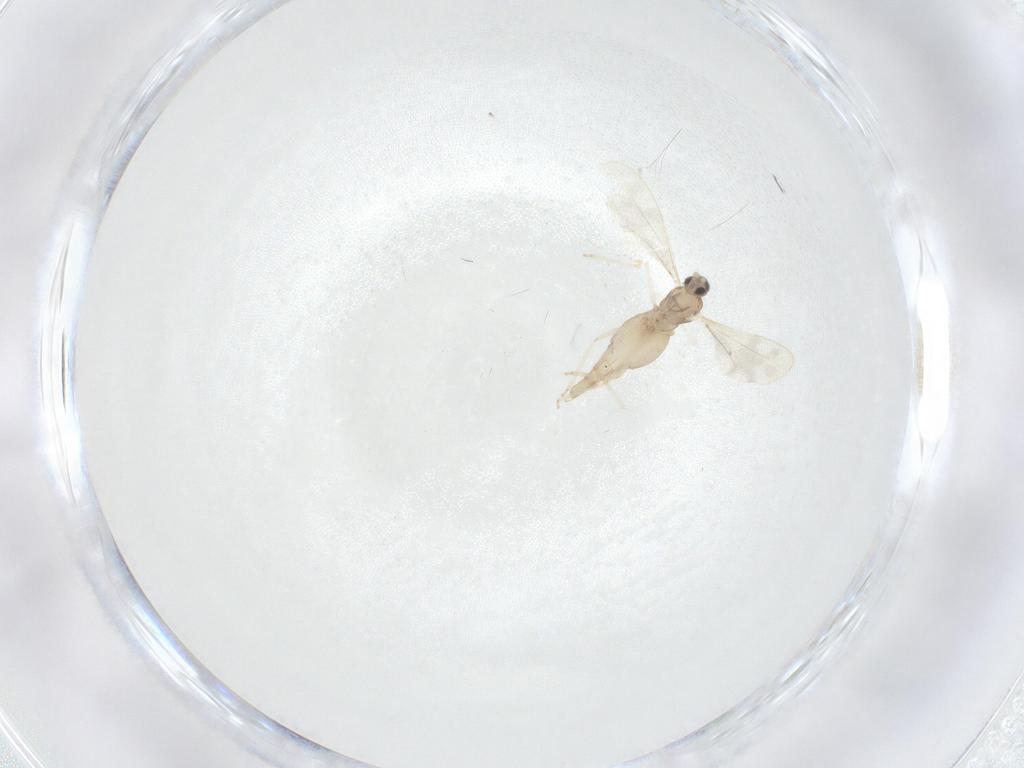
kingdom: Animalia
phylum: Arthropoda
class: Insecta
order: Diptera
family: Cecidomyiidae
